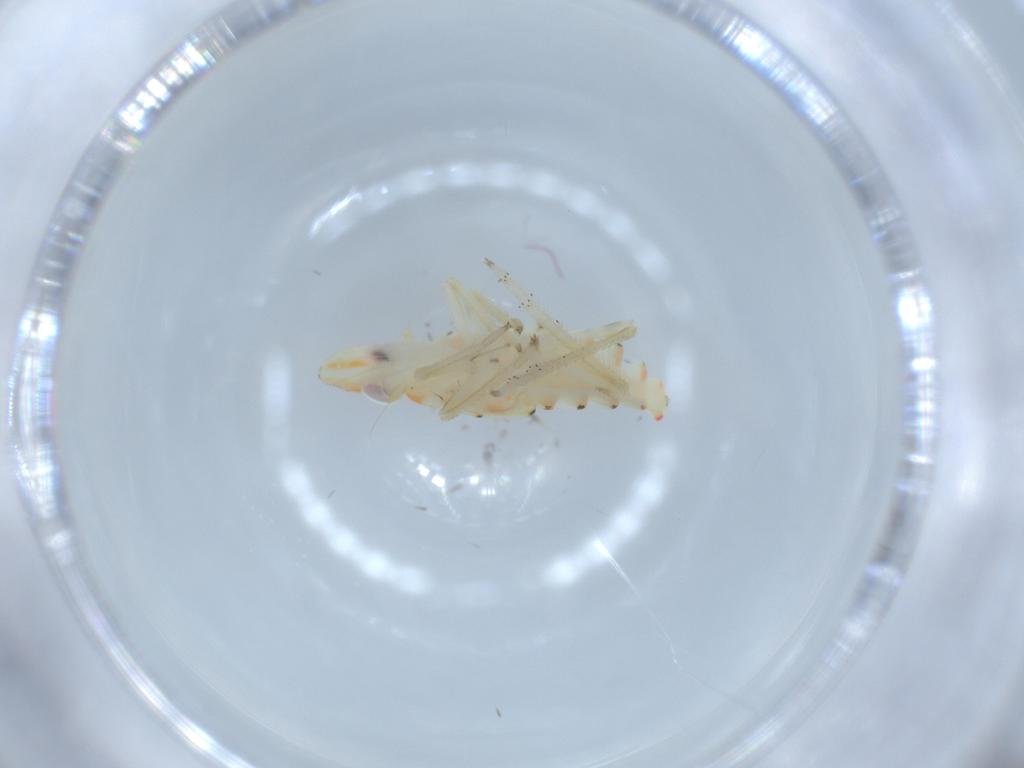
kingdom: Animalia
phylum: Arthropoda
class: Insecta
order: Hemiptera
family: Tropiduchidae
